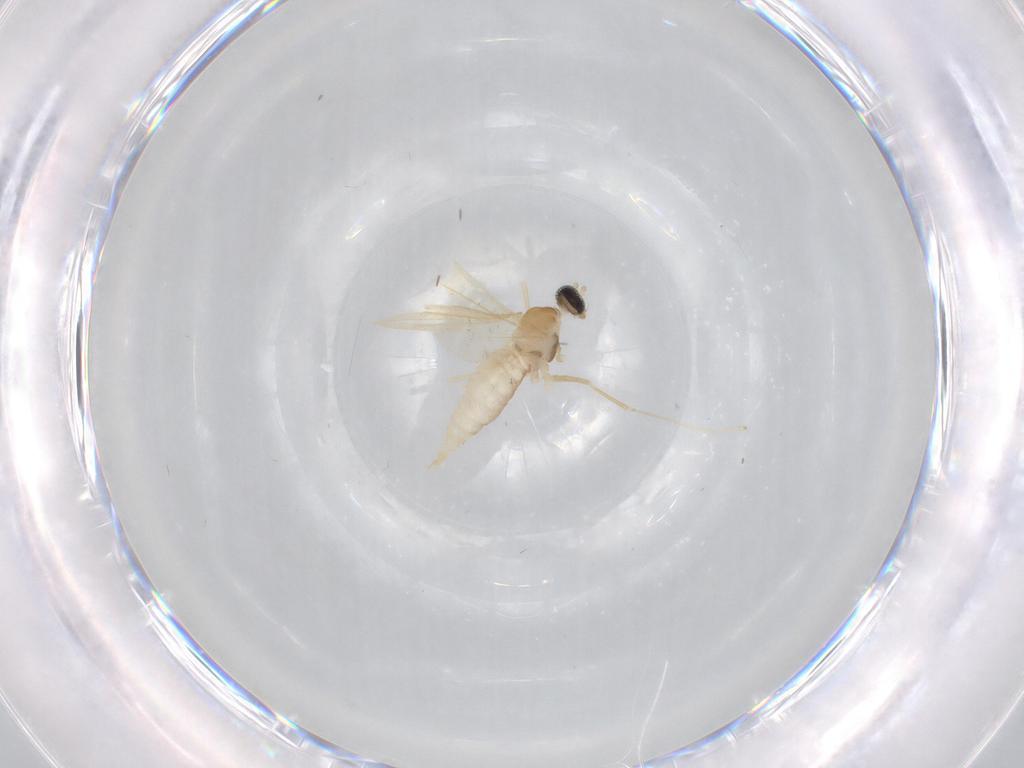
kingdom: Animalia
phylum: Arthropoda
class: Insecta
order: Diptera
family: Cecidomyiidae
